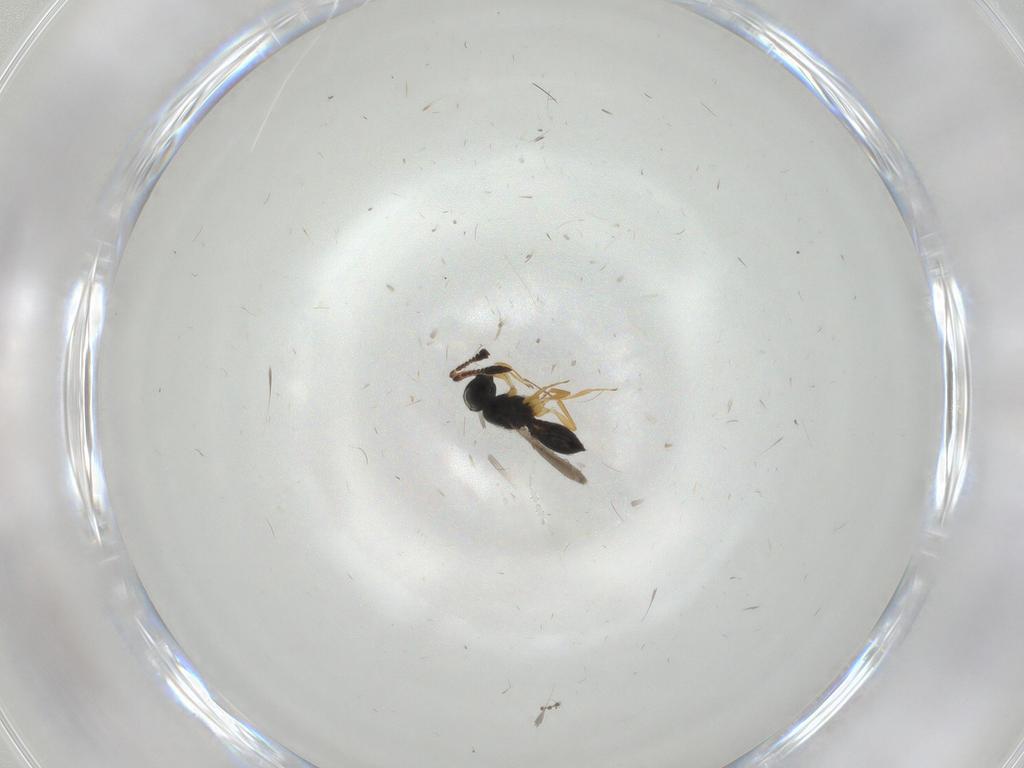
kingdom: Animalia
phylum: Arthropoda
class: Insecta
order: Hymenoptera
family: Scelionidae
